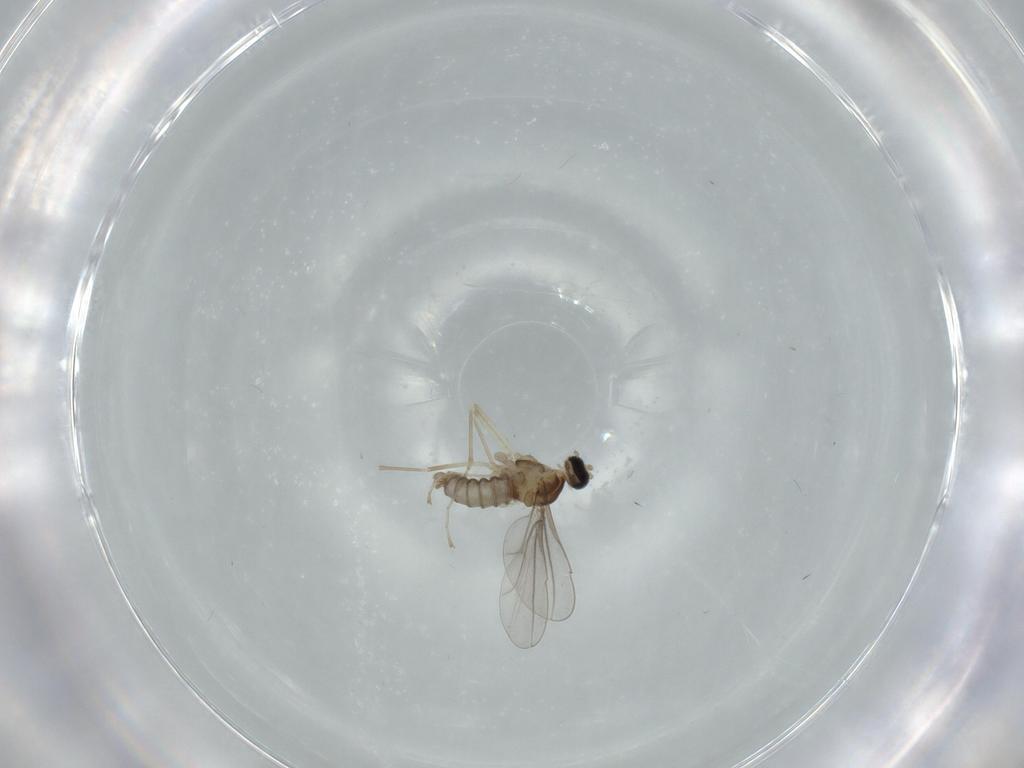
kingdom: Animalia
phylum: Arthropoda
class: Insecta
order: Diptera
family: Cecidomyiidae
